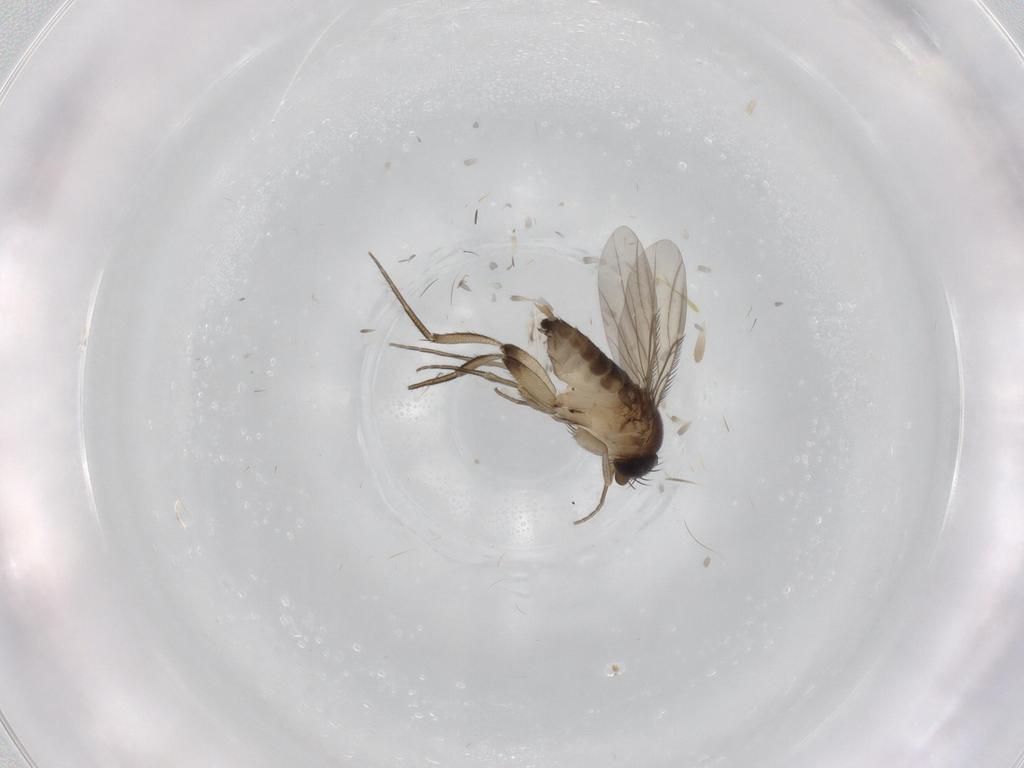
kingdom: Animalia
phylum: Arthropoda
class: Insecta
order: Diptera
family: Phoridae
